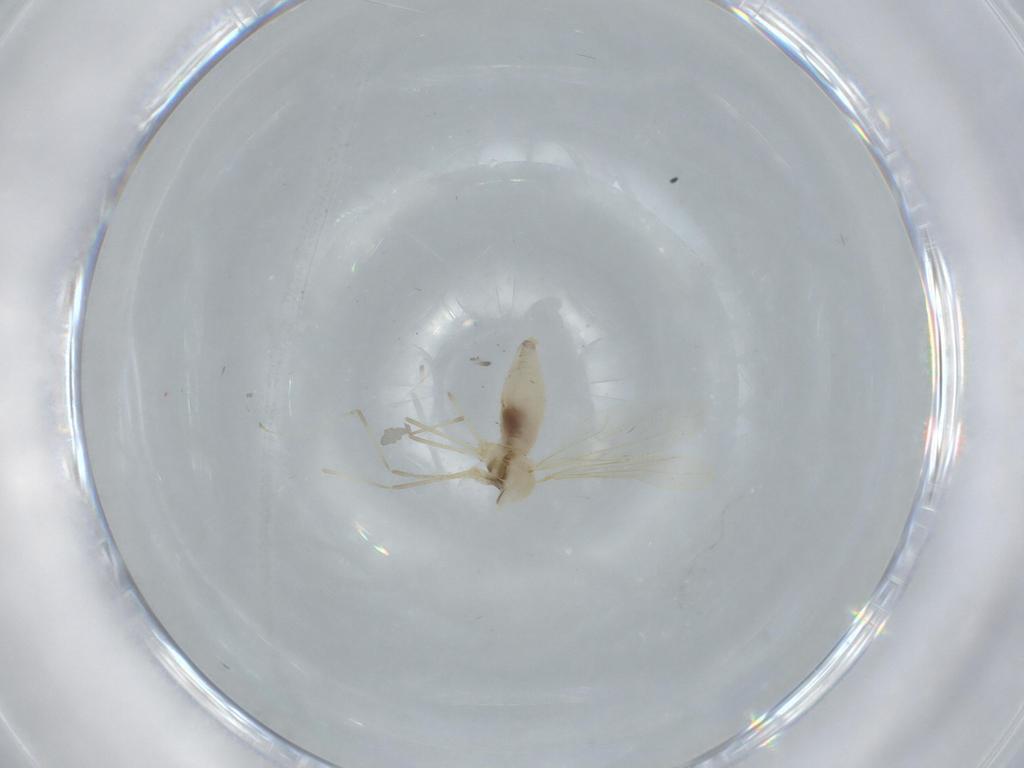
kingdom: Animalia
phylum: Arthropoda
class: Insecta
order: Diptera
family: Cecidomyiidae
